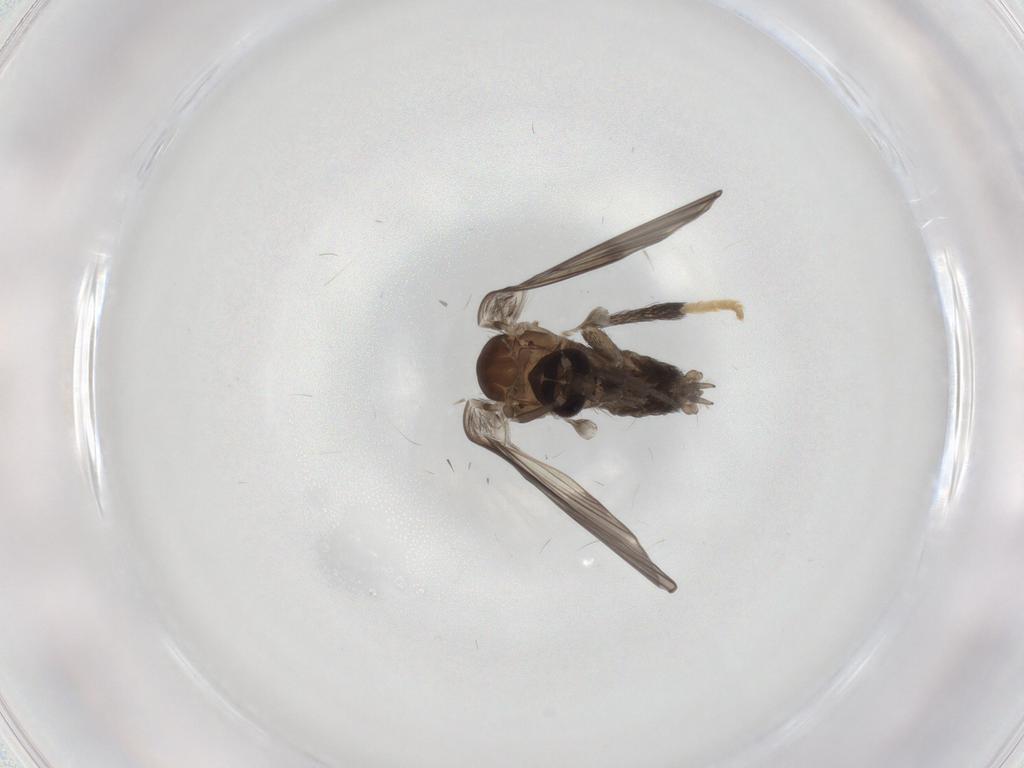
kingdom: Animalia
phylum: Arthropoda
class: Insecta
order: Diptera
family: Psychodidae
